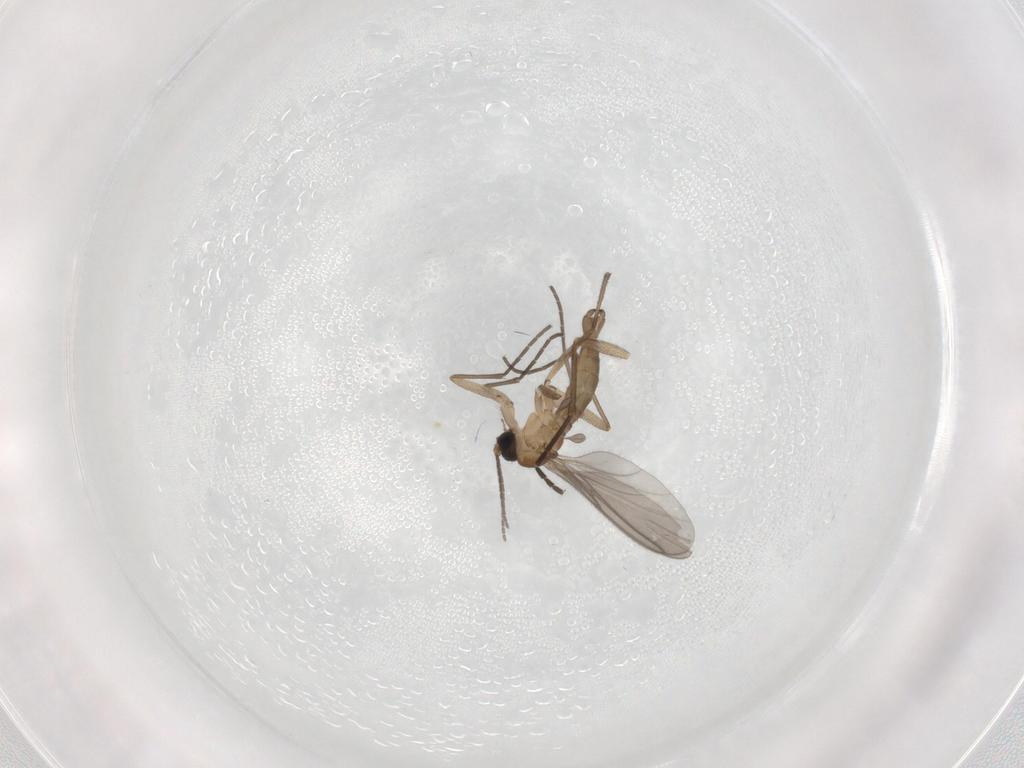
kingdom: Animalia
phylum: Arthropoda
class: Insecta
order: Diptera
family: Sciaridae
